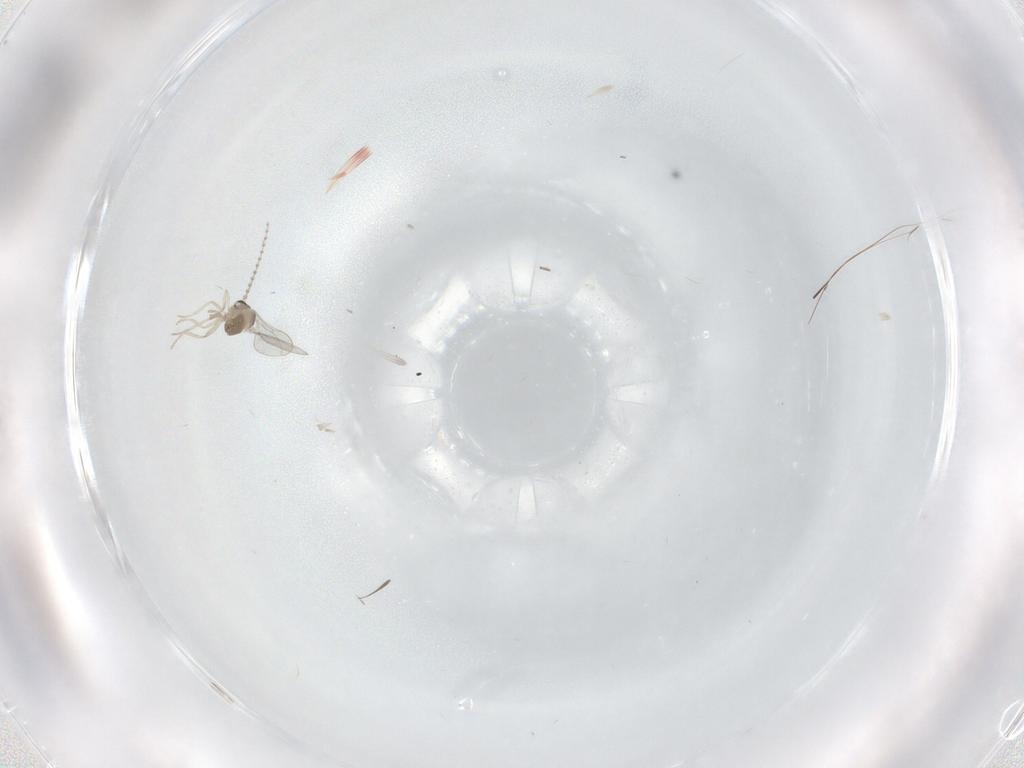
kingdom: Animalia
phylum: Arthropoda
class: Insecta
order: Diptera
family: Cecidomyiidae
